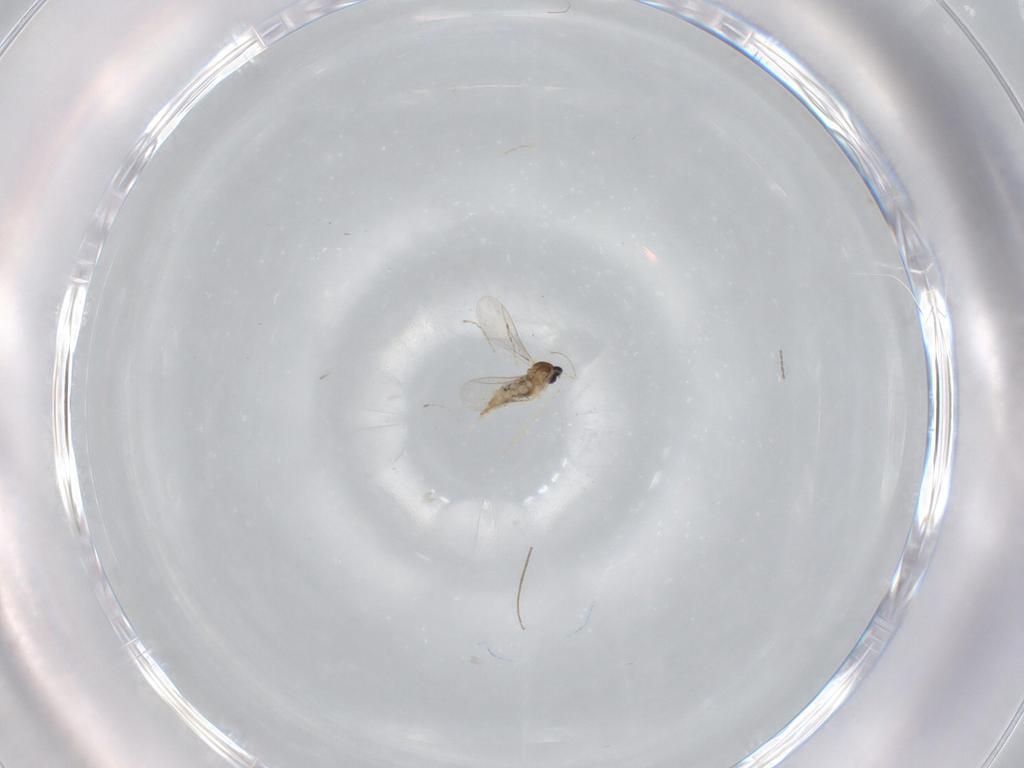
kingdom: Animalia
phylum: Arthropoda
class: Insecta
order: Diptera
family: Cecidomyiidae
